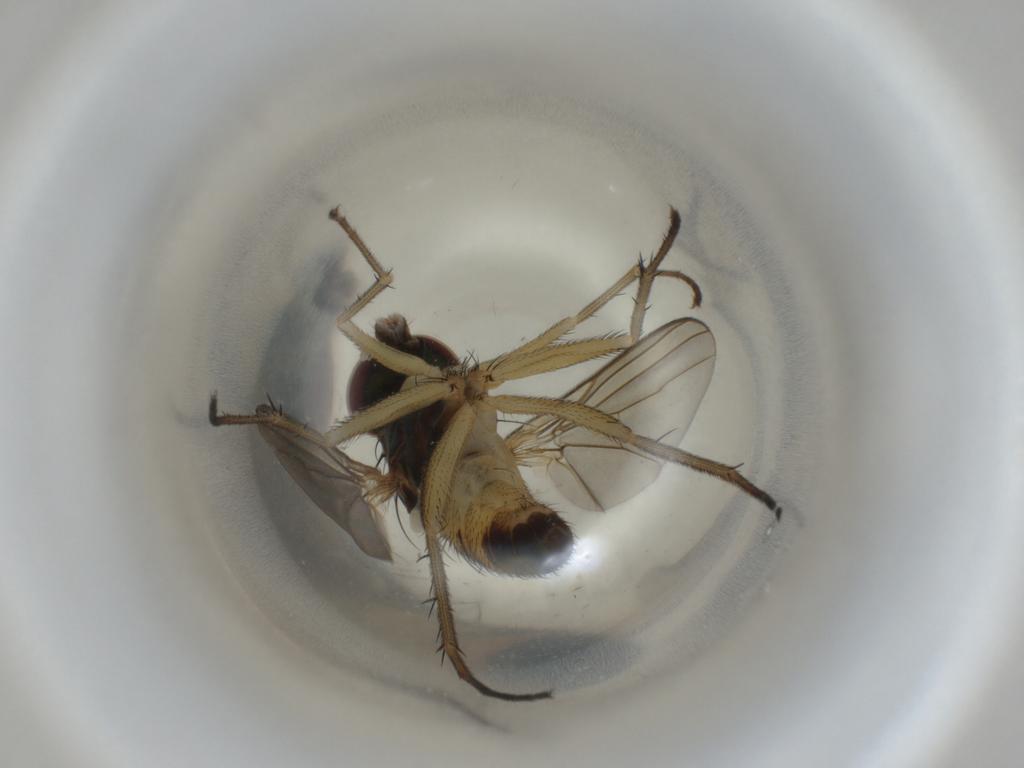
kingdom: Animalia
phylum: Arthropoda
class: Insecta
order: Diptera
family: Dolichopodidae
